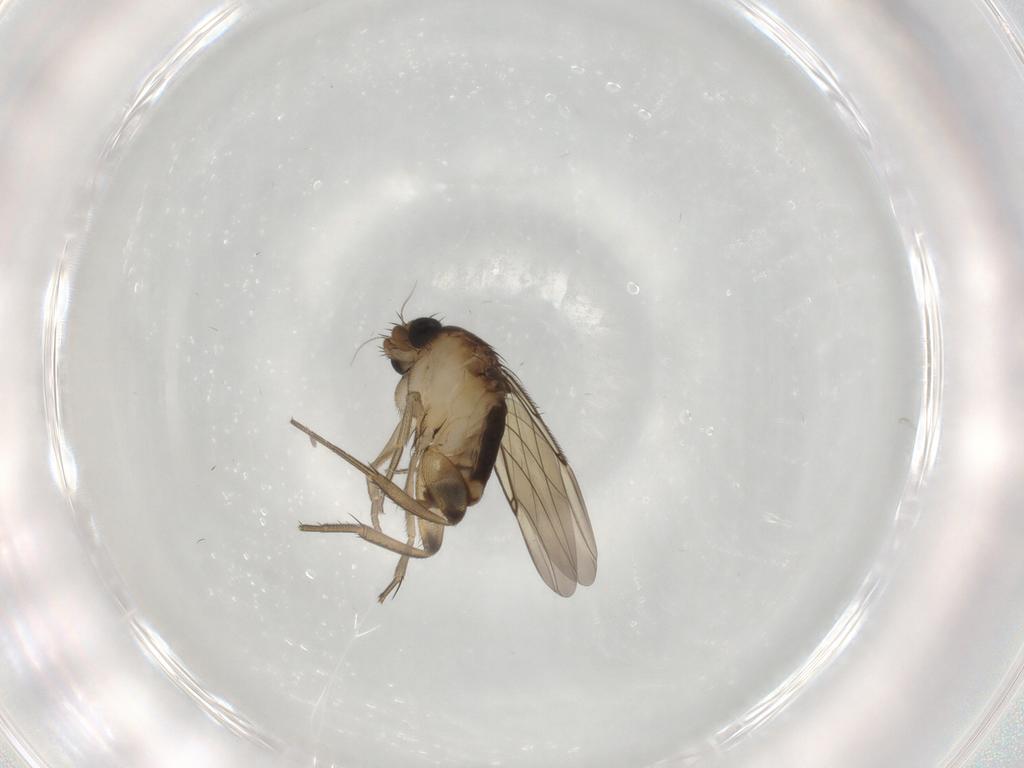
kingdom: Animalia
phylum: Arthropoda
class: Insecta
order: Diptera
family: Phoridae
